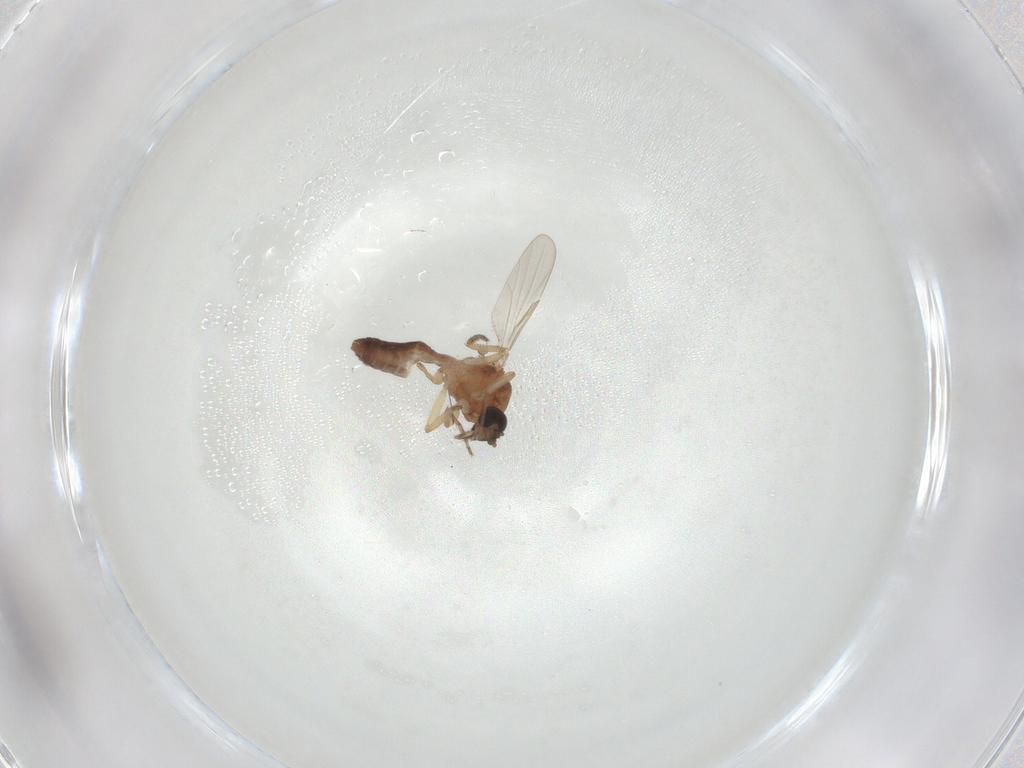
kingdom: Animalia
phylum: Arthropoda
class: Insecta
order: Diptera
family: Ceratopogonidae
